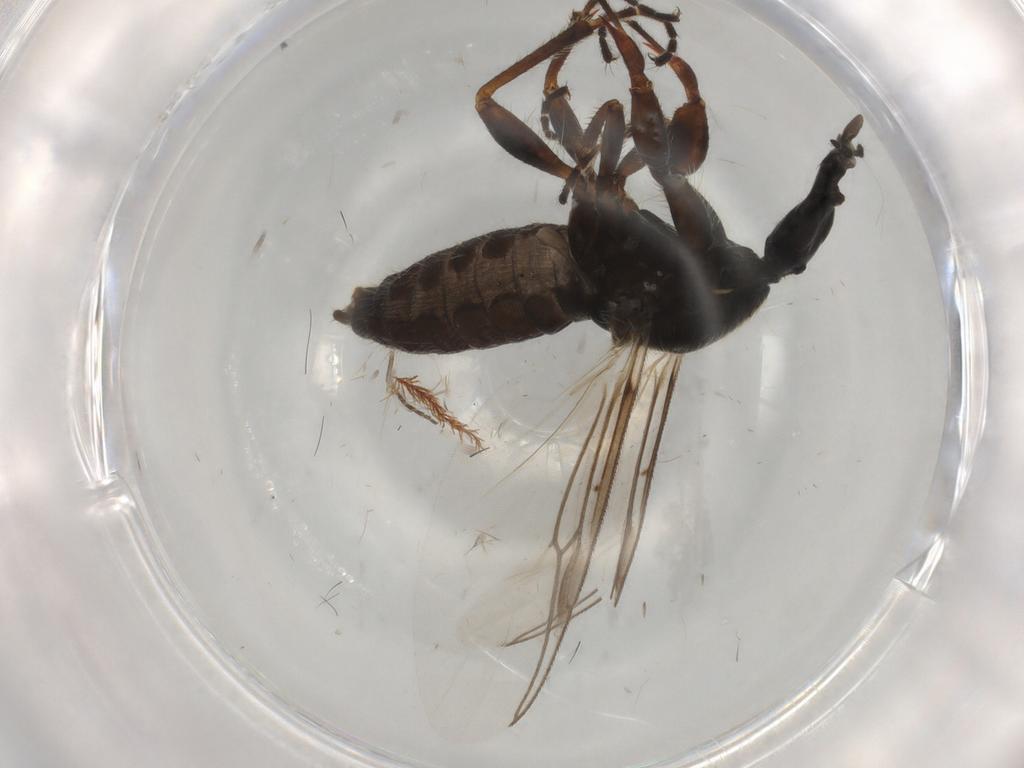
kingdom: Animalia
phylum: Arthropoda
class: Insecta
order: Diptera
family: Bibionidae
